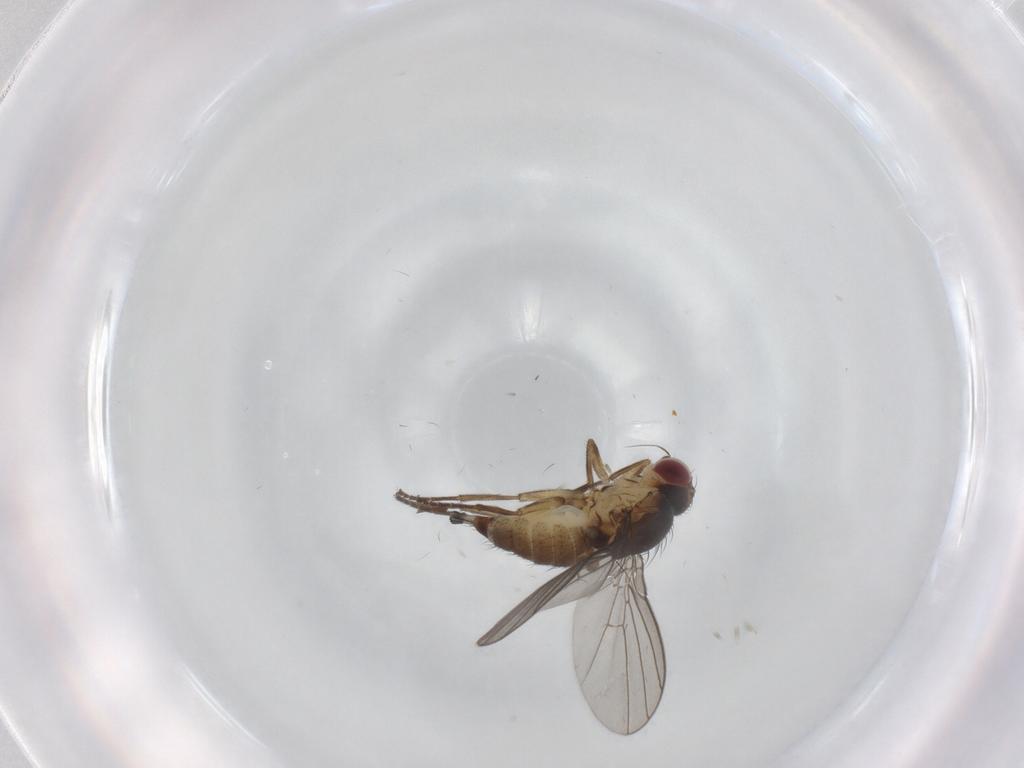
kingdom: Animalia
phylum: Arthropoda
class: Insecta
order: Diptera
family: Agromyzidae
